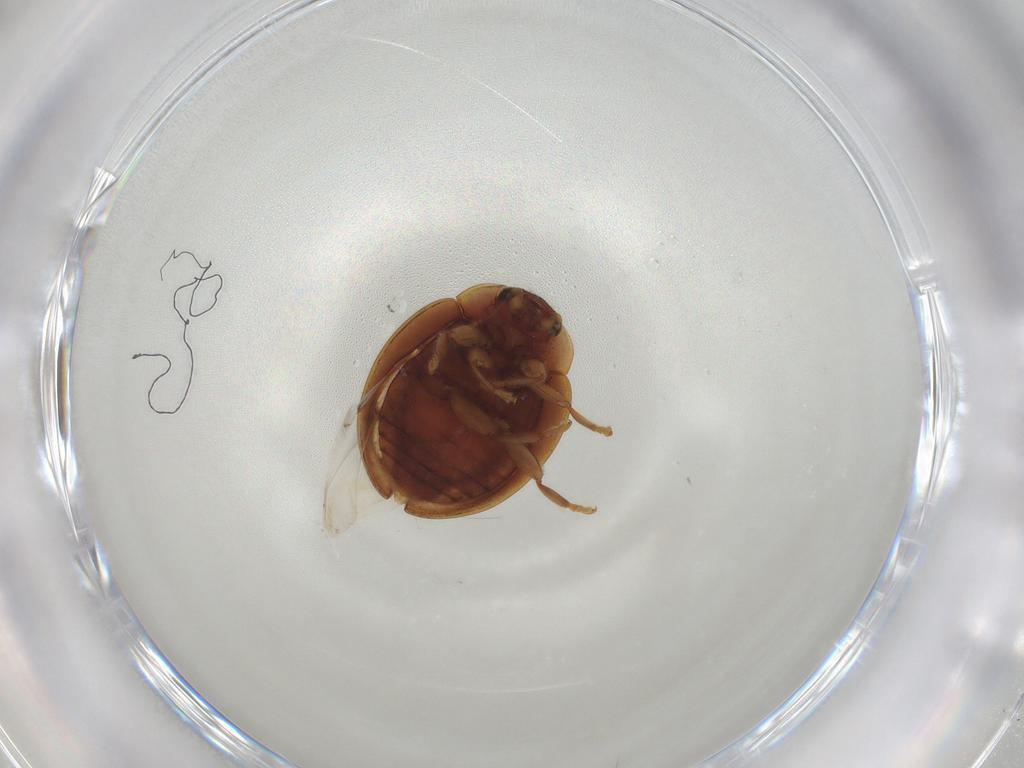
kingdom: Animalia
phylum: Arthropoda
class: Insecta
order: Coleoptera
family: Coccinellidae
